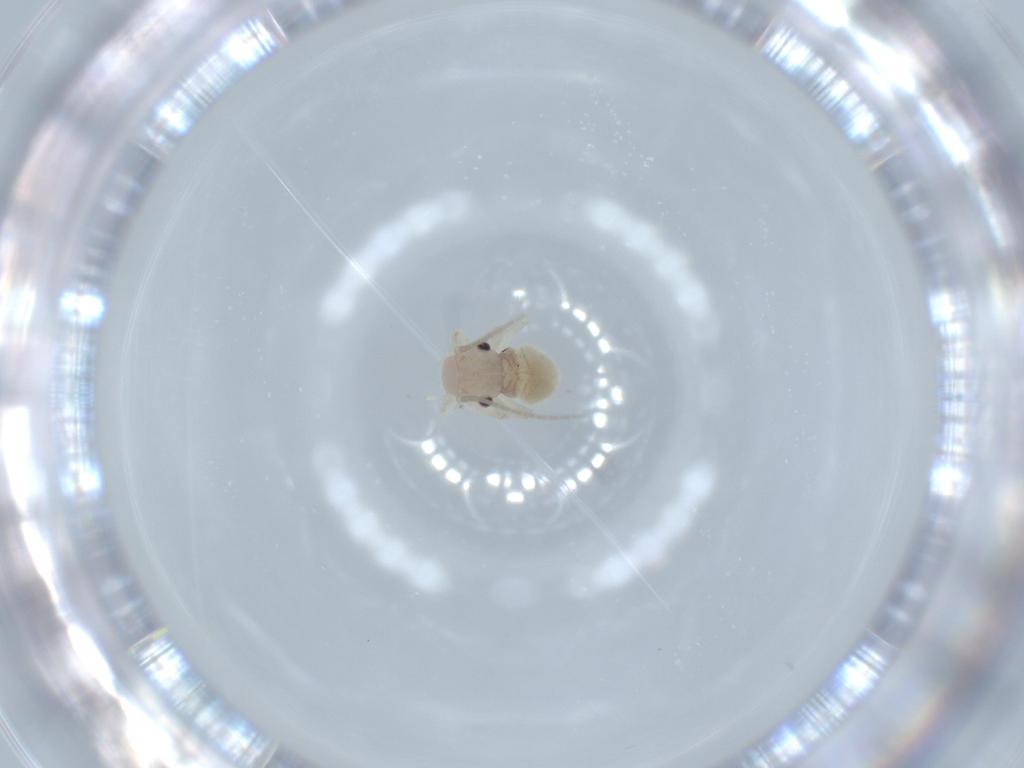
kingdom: Animalia
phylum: Arthropoda
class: Insecta
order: Psocodea
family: Amphipsocidae
